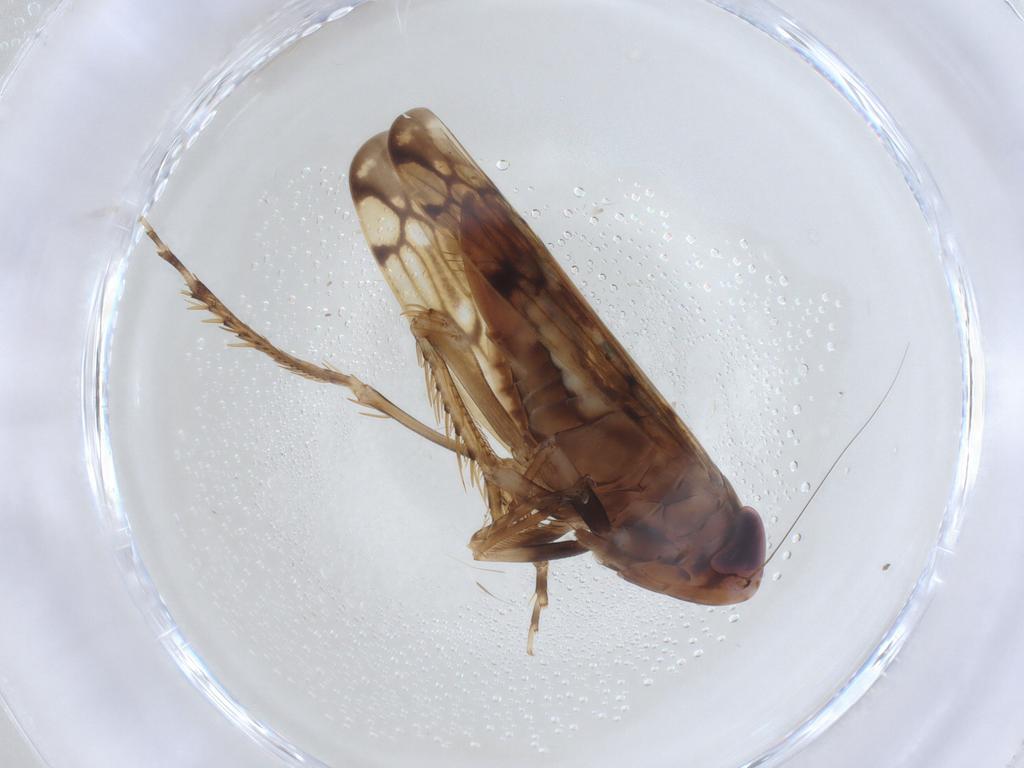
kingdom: Animalia
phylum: Arthropoda
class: Insecta
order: Hemiptera
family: Cicadellidae
